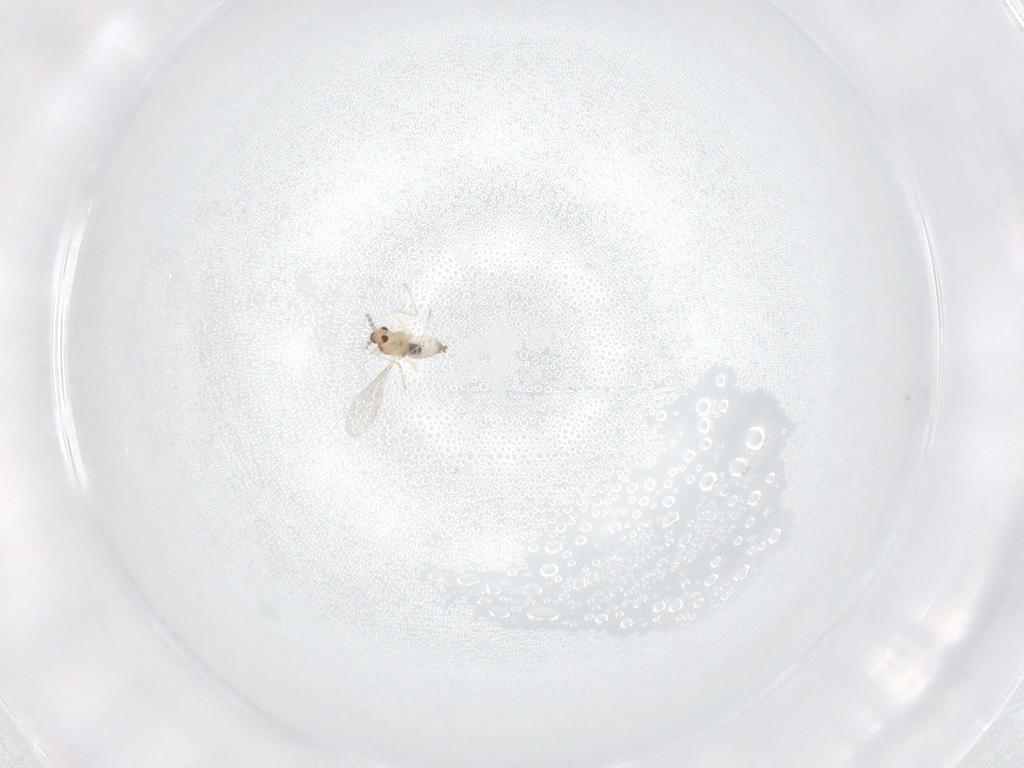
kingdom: Animalia
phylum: Arthropoda
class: Insecta
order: Diptera
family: Cecidomyiidae
